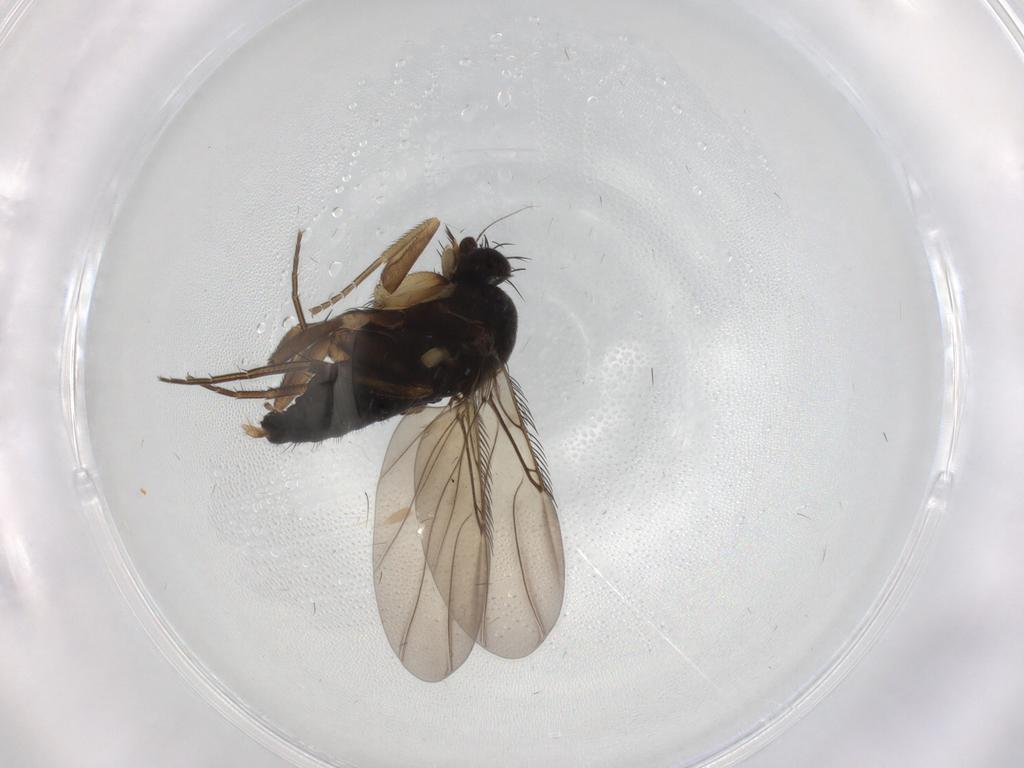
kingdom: Animalia
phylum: Arthropoda
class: Insecta
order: Diptera
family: Phoridae
